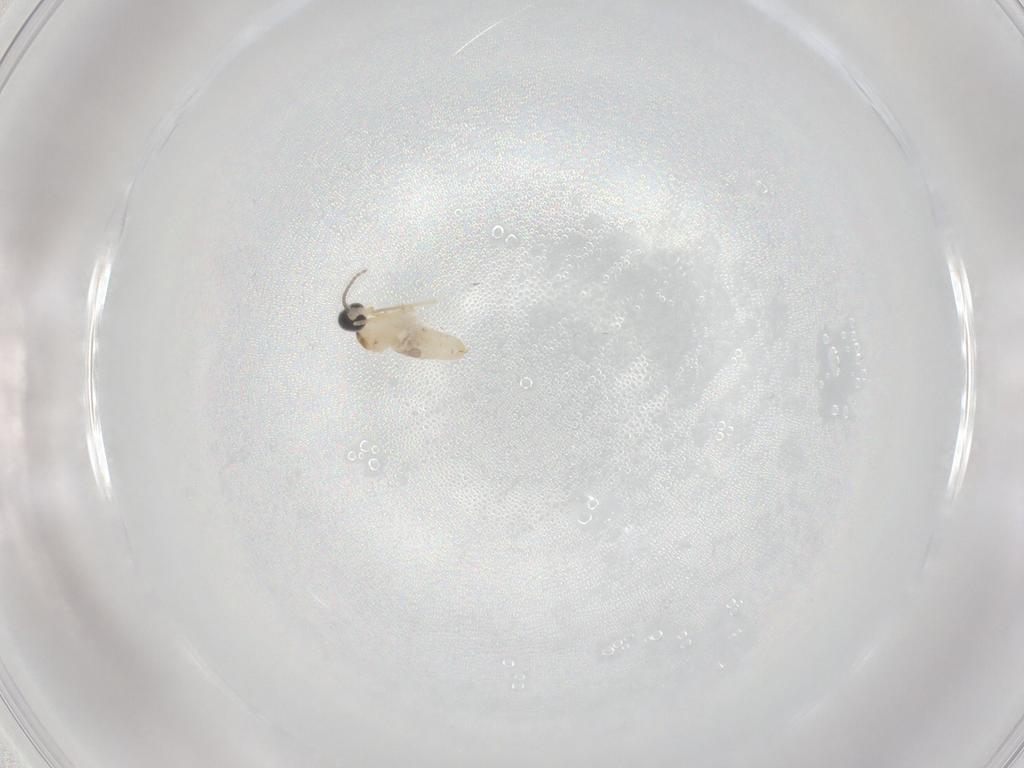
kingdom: Animalia
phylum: Arthropoda
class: Insecta
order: Diptera
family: Cecidomyiidae
